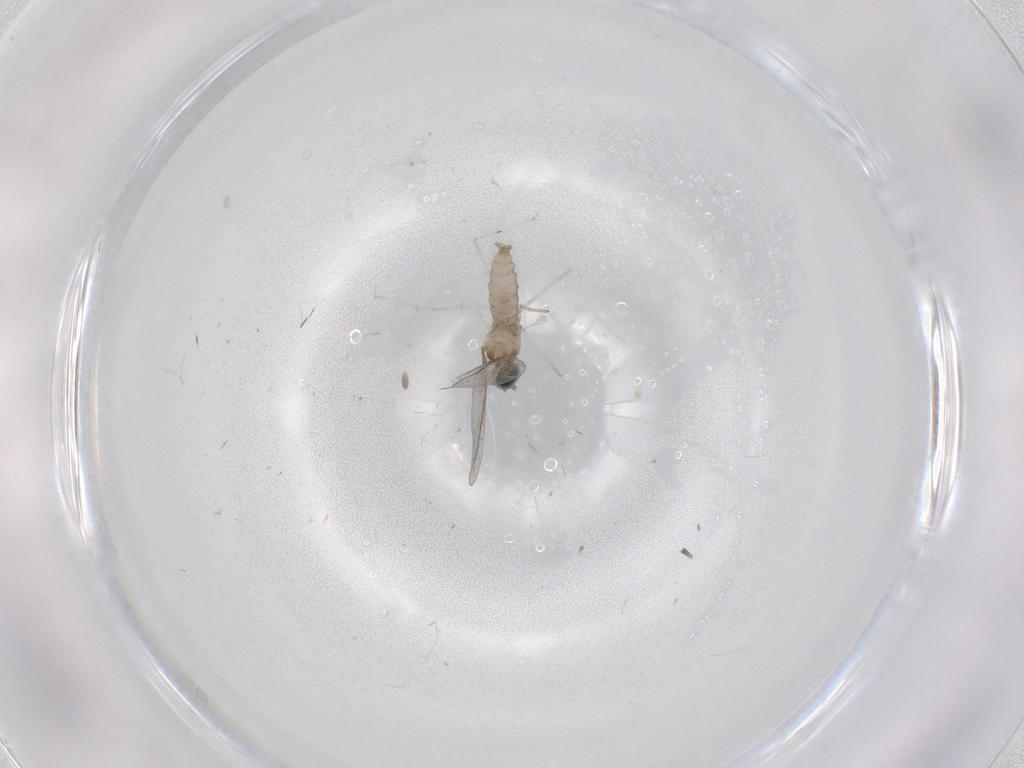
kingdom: Animalia
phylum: Arthropoda
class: Insecta
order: Diptera
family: Cecidomyiidae
